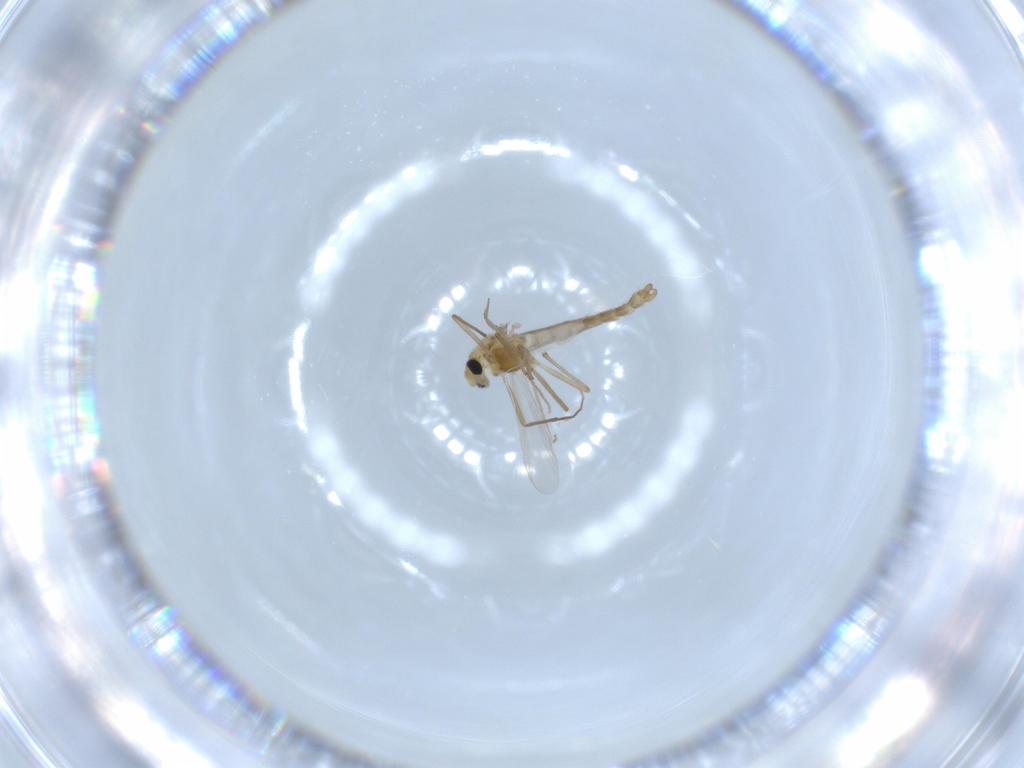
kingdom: Animalia
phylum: Arthropoda
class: Insecta
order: Diptera
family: Chironomidae
